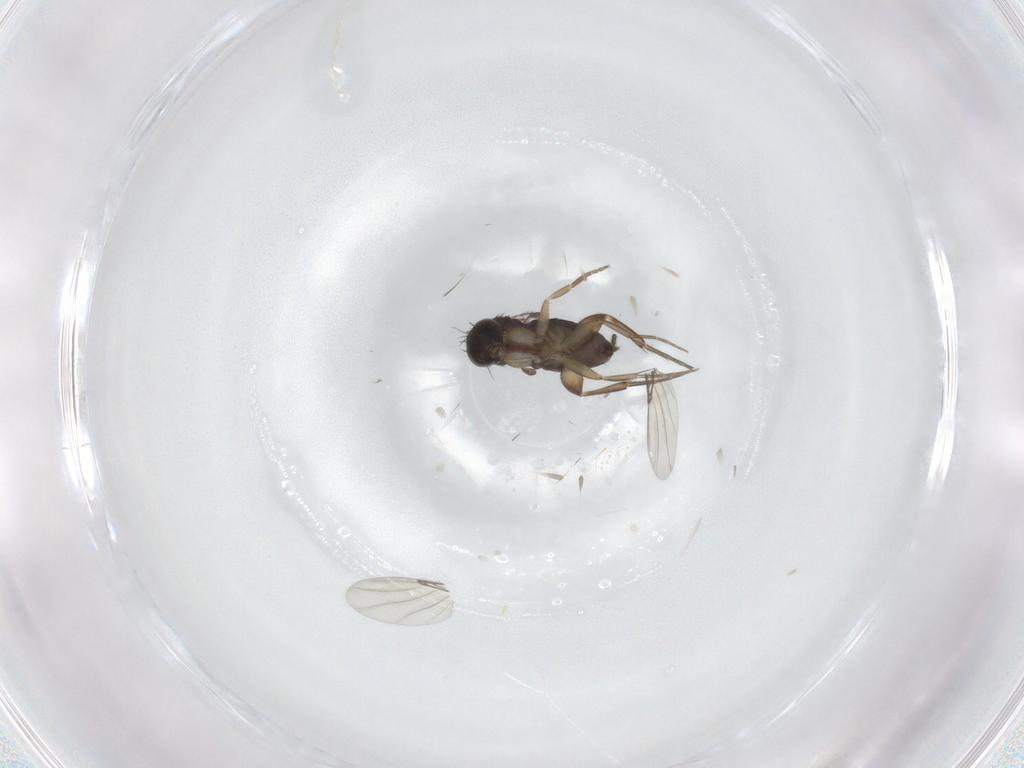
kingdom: Animalia
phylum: Arthropoda
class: Insecta
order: Diptera
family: Phoridae
